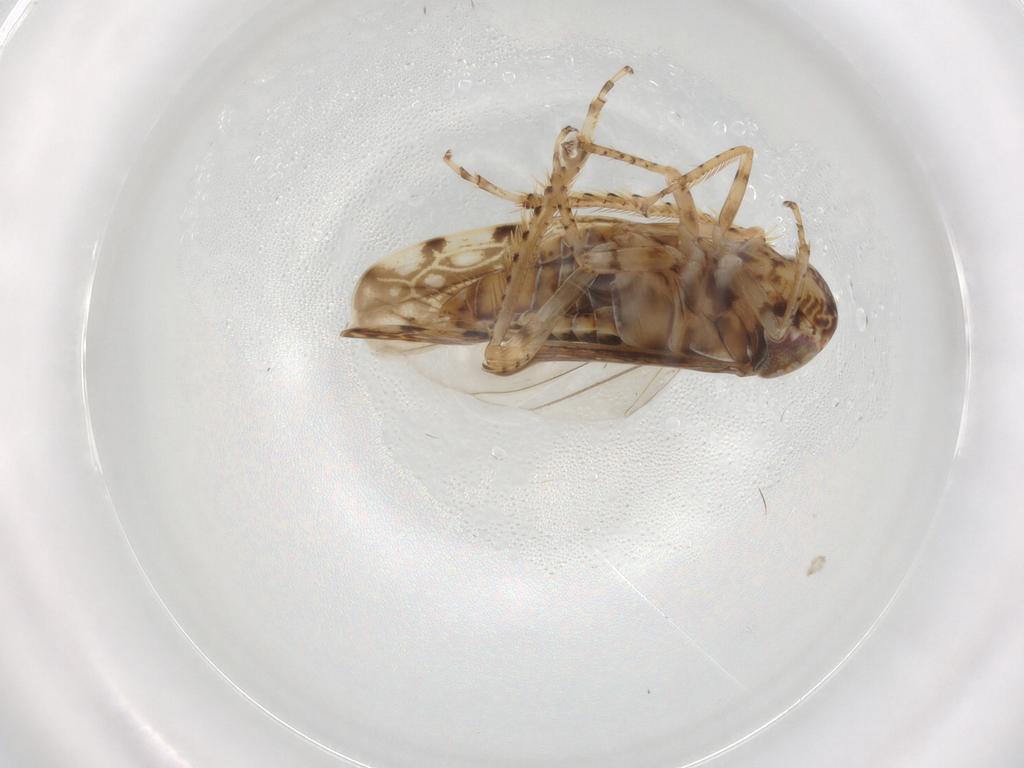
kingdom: Animalia
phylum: Arthropoda
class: Insecta
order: Hemiptera
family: Cicadellidae
